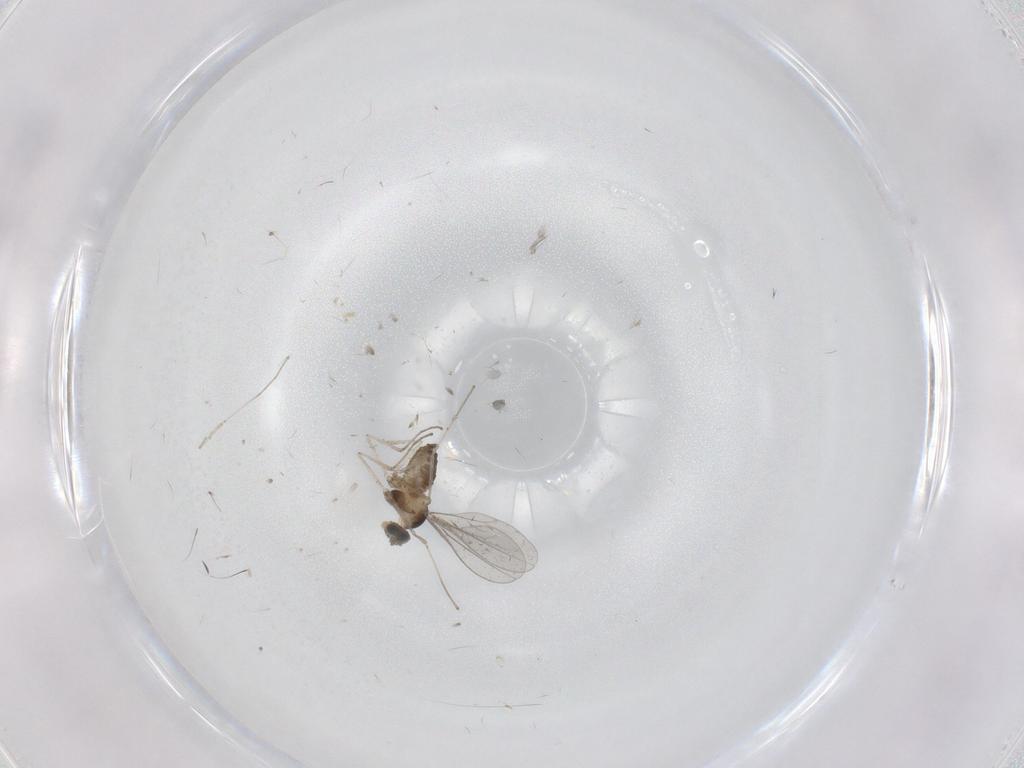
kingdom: Animalia
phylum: Arthropoda
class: Insecta
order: Diptera
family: Cecidomyiidae
